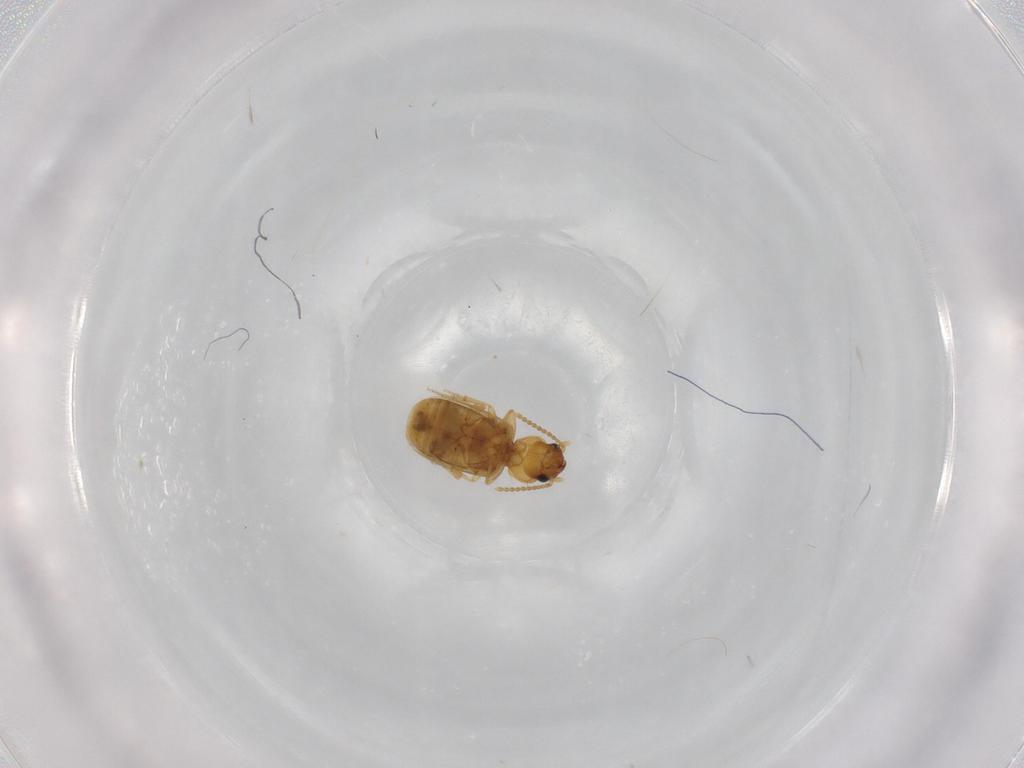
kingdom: Animalia
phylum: Arthropoda
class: Insecta
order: Coleoptera
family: Carabidae
